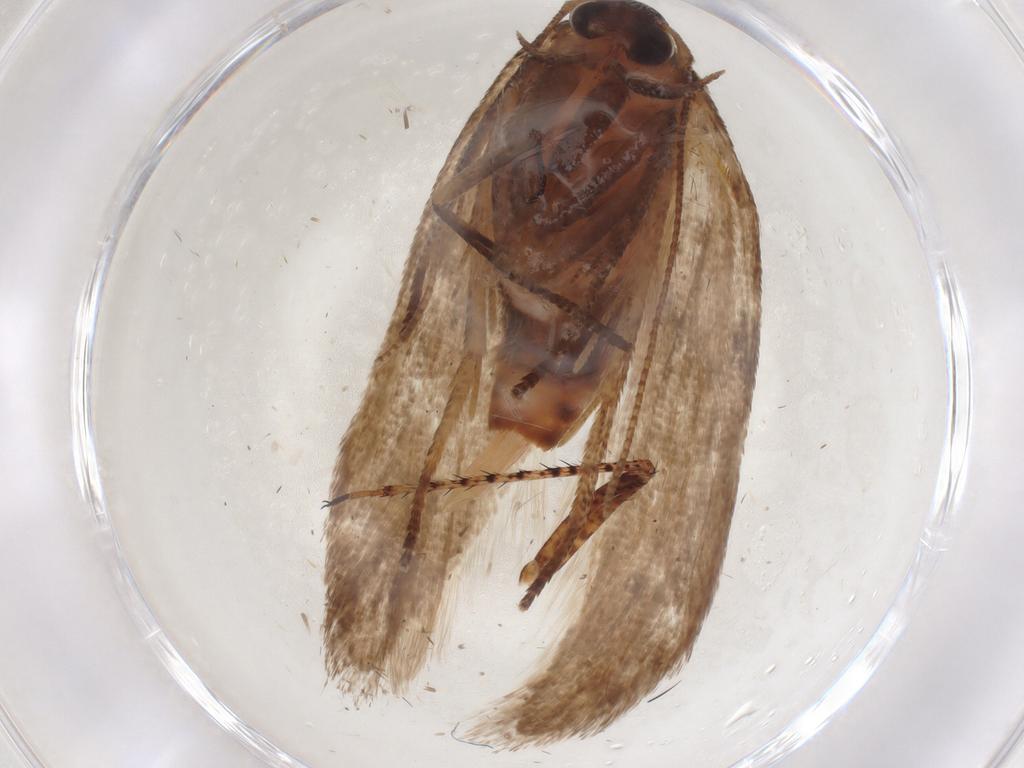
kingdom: Animalia
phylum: Arthropoda
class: Insecta
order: Lepidoptera
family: Blastobasidae
